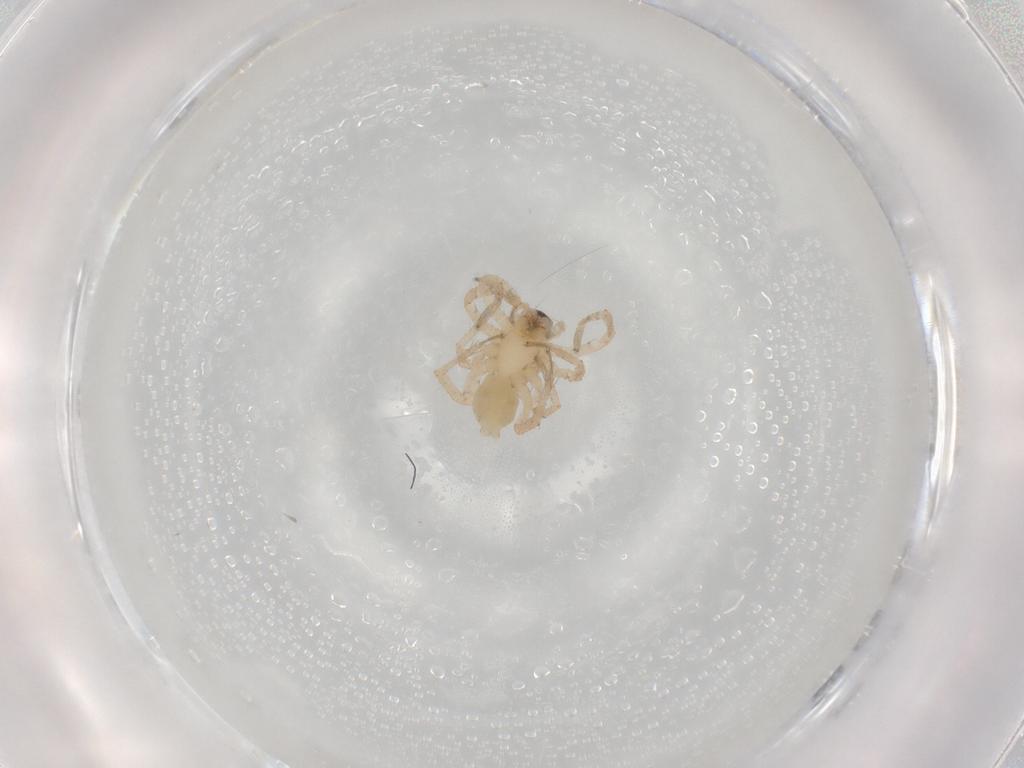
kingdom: Animalia
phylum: Arthropoda
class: Arachnida
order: Araneae
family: Anyphaenidae
